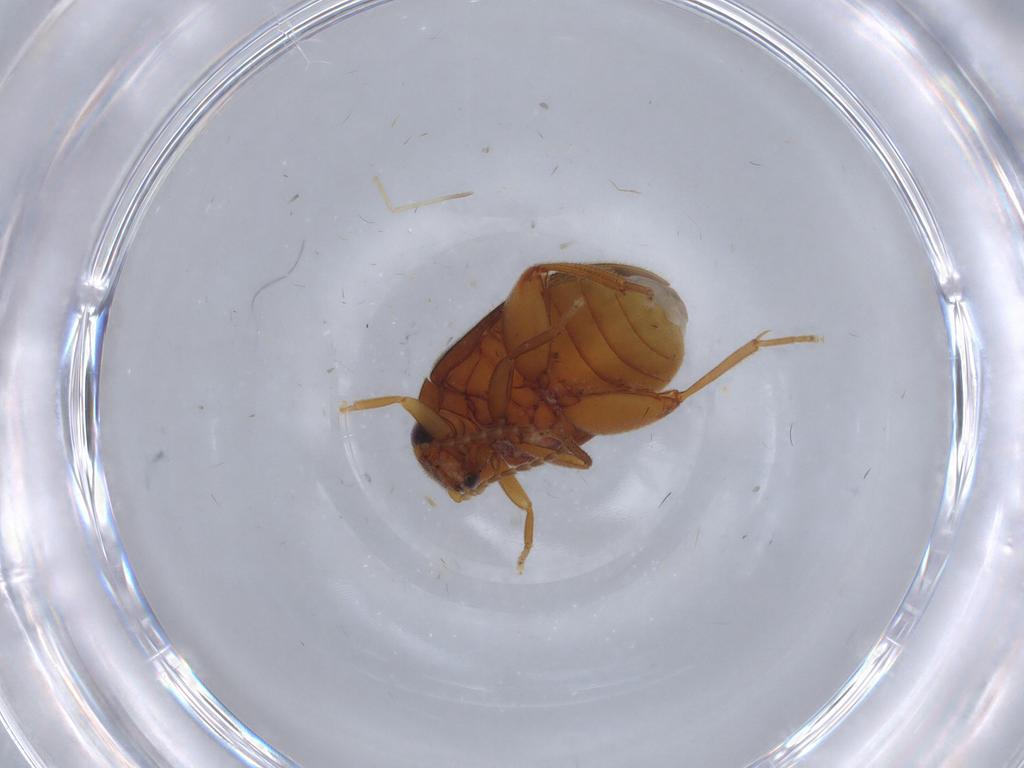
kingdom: Animalia
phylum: Arthropoda
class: Insecta
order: Coleoptera
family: Scirtidae
